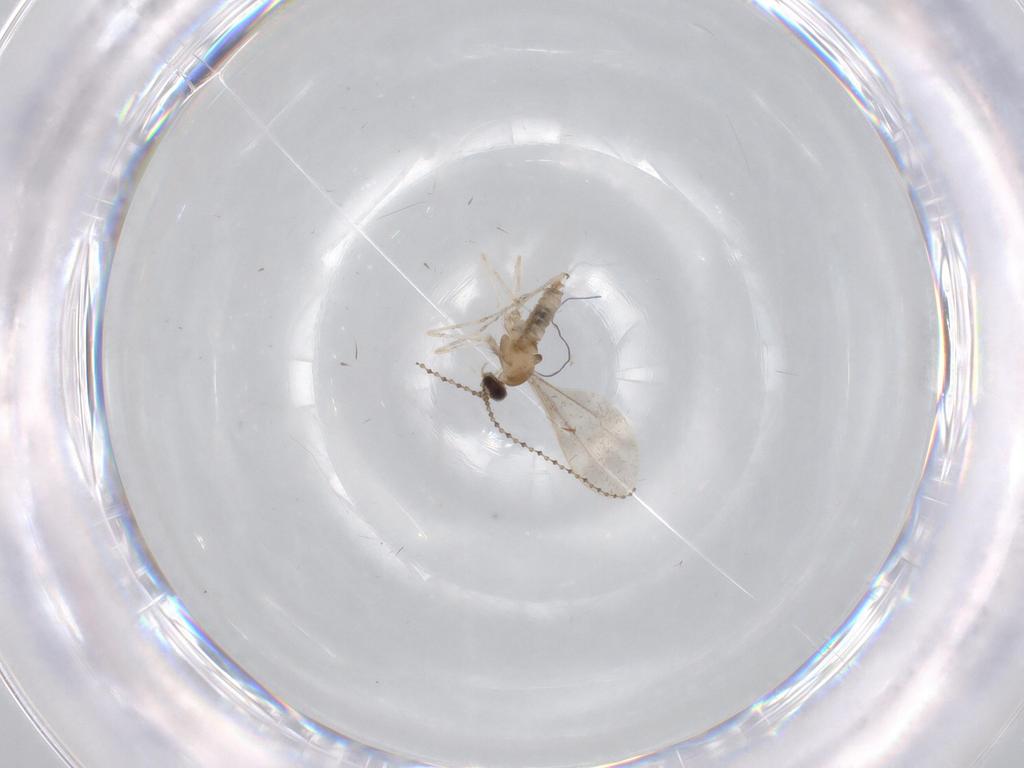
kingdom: Animalia
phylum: Arthropoda
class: Insecta
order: Diptera
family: Cecidomyiidae
